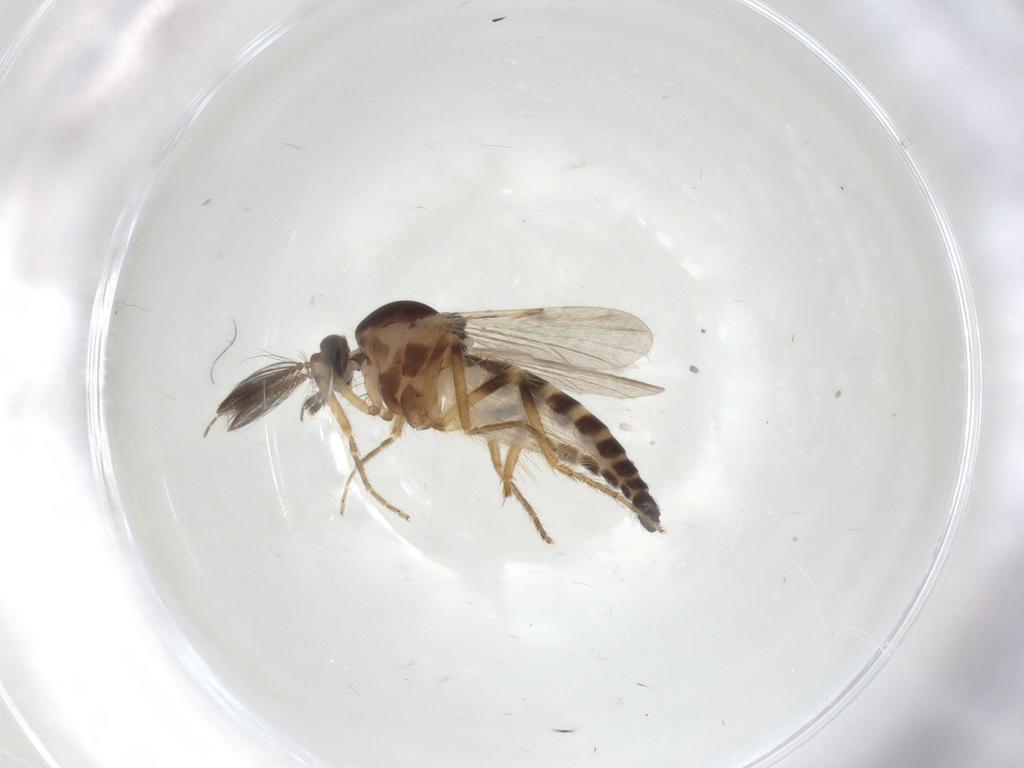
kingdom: Animalia
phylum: Arthropoda
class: Insecta
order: Diptera
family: Ceratopogonidae
